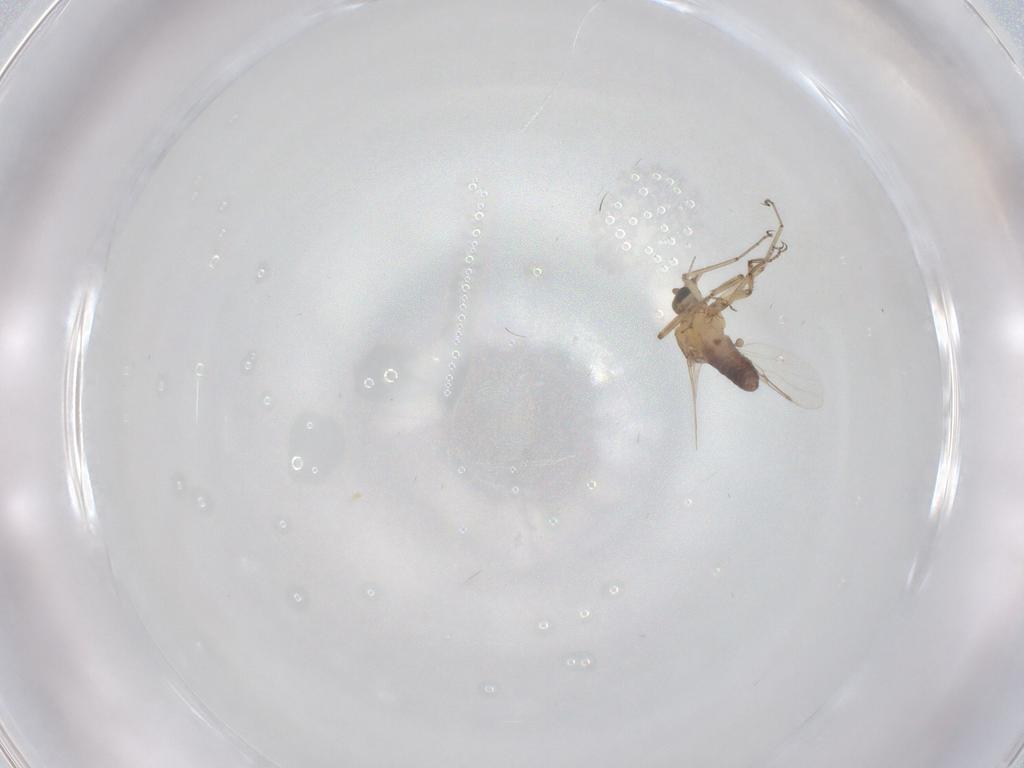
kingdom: Animalia
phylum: Arthropoda
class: Insecta
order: Diptera
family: Ceratopogonidae
